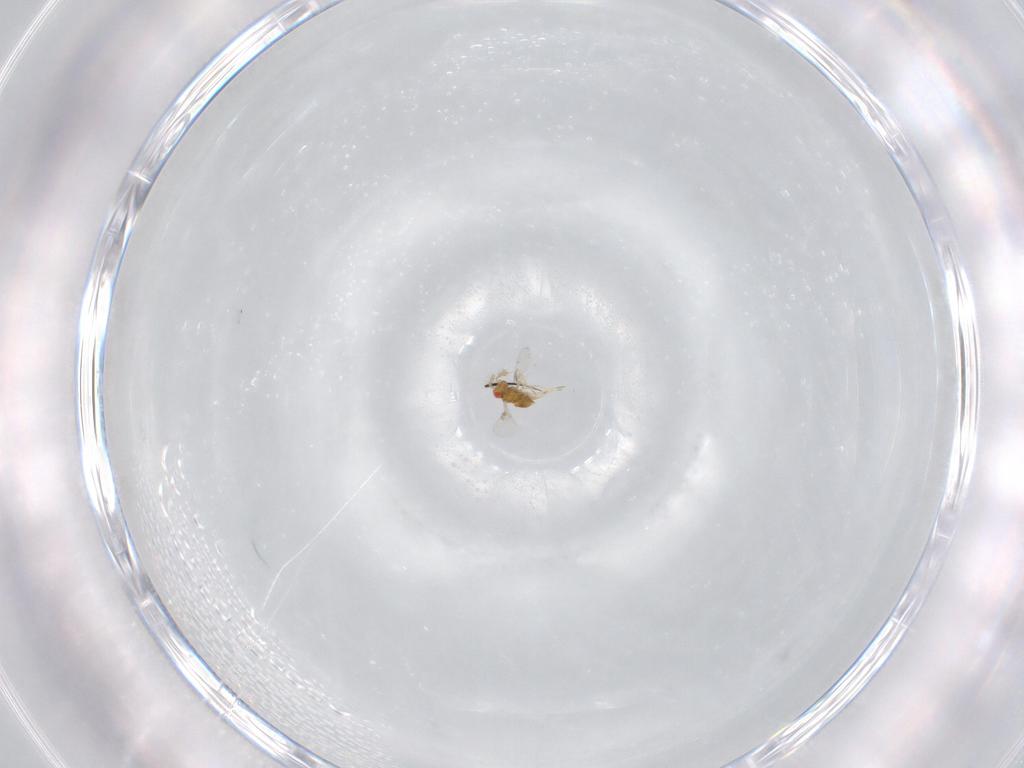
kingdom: Animalia
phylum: Arthropoda
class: Insecta
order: Hymenoptera
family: Trichogrammatidae
